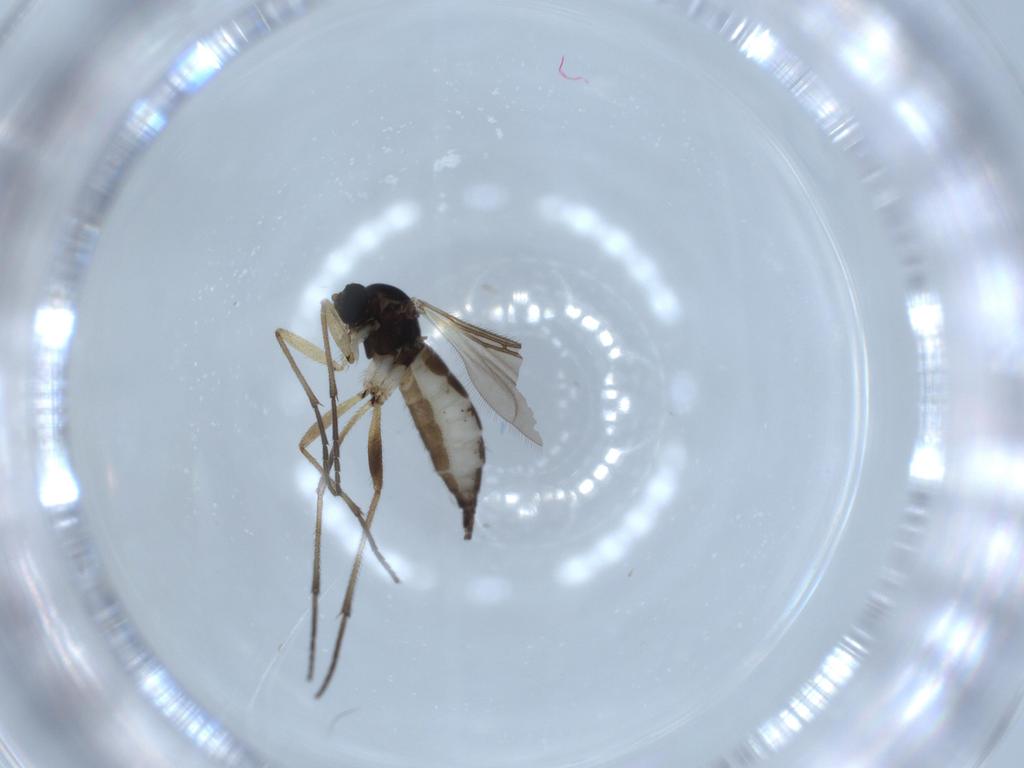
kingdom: Animalia
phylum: Arthropoda
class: Insecta
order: Diptera
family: Sciaridae
